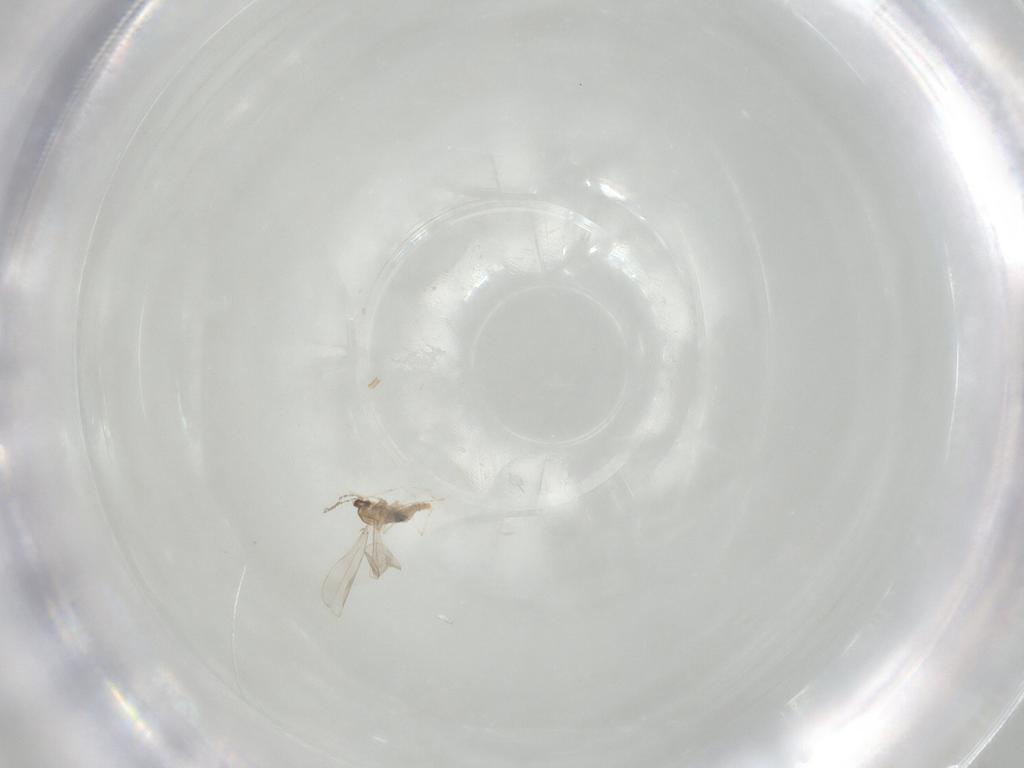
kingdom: Animalia
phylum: Arthropoda
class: Insecta
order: Diptera
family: Cecidomyiidae
